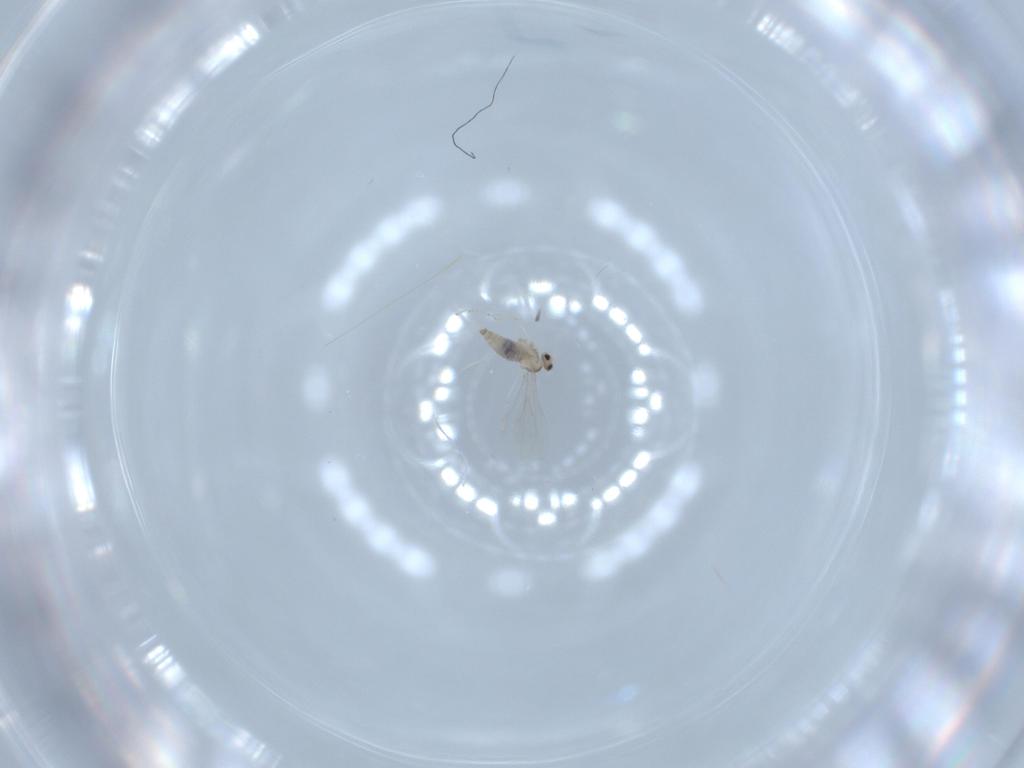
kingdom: Animalia
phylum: Arthropoda
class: Insecta
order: Diptera
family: Cecidomyiidae
